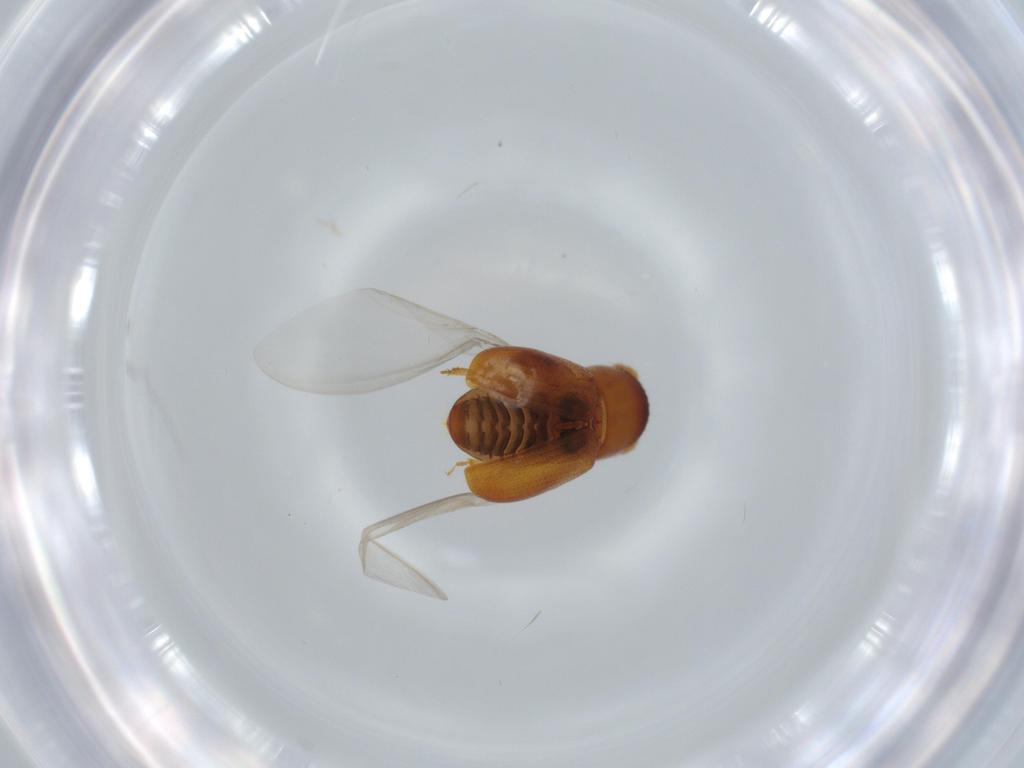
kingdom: Animalia
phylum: Arthropoda
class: Insecta
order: Coleoptera
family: Curculionidae
